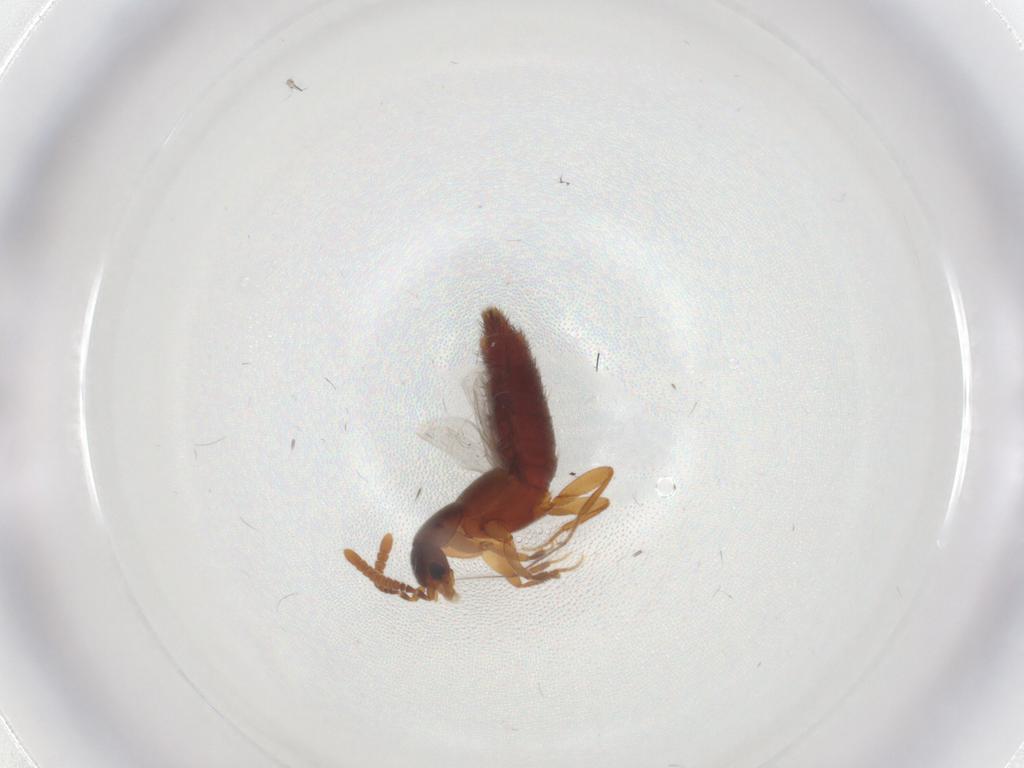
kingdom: Animalia
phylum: Arthropoda
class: Insecta
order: Coleoptera
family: Staphylinidae
